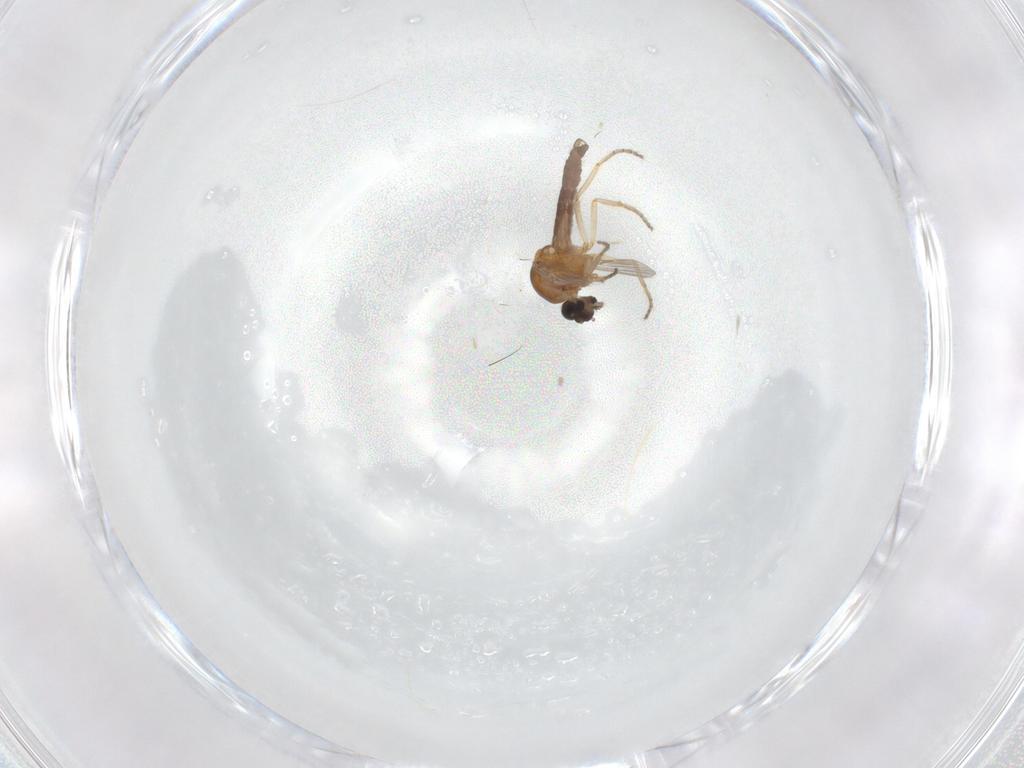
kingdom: Animalia
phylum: Arthropoda
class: Insecta
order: Diptera
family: Ceratopogonidae
